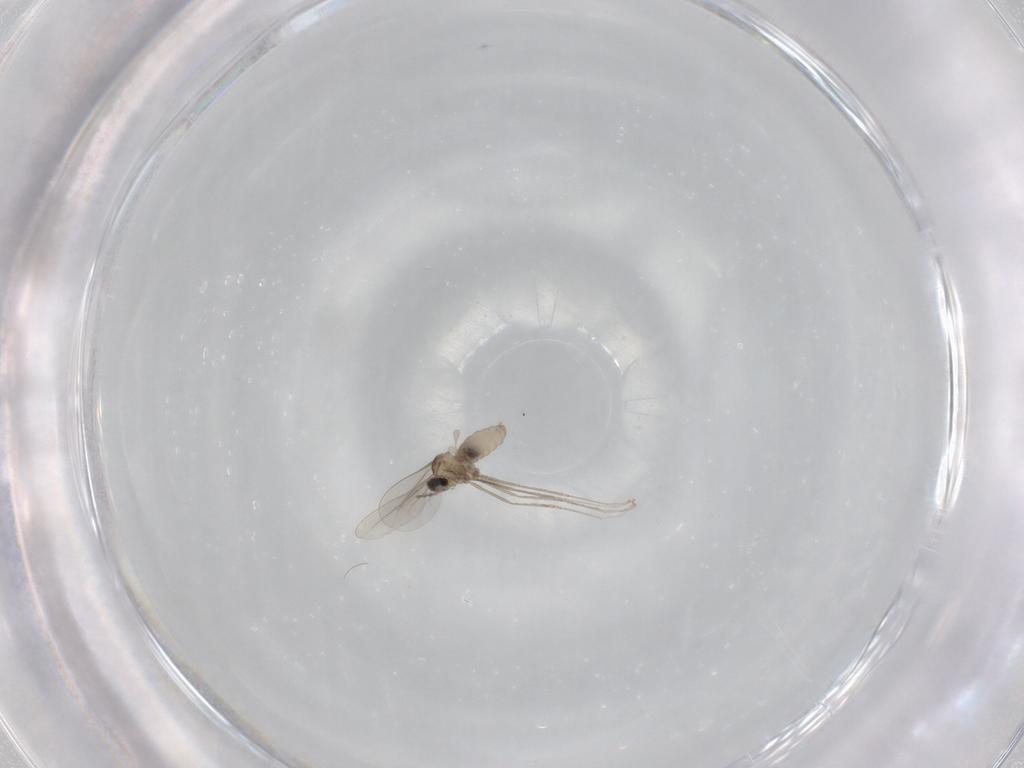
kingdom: Animalia
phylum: Arthropoda
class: Insecta
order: Diptera
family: Cecidomyiidae
